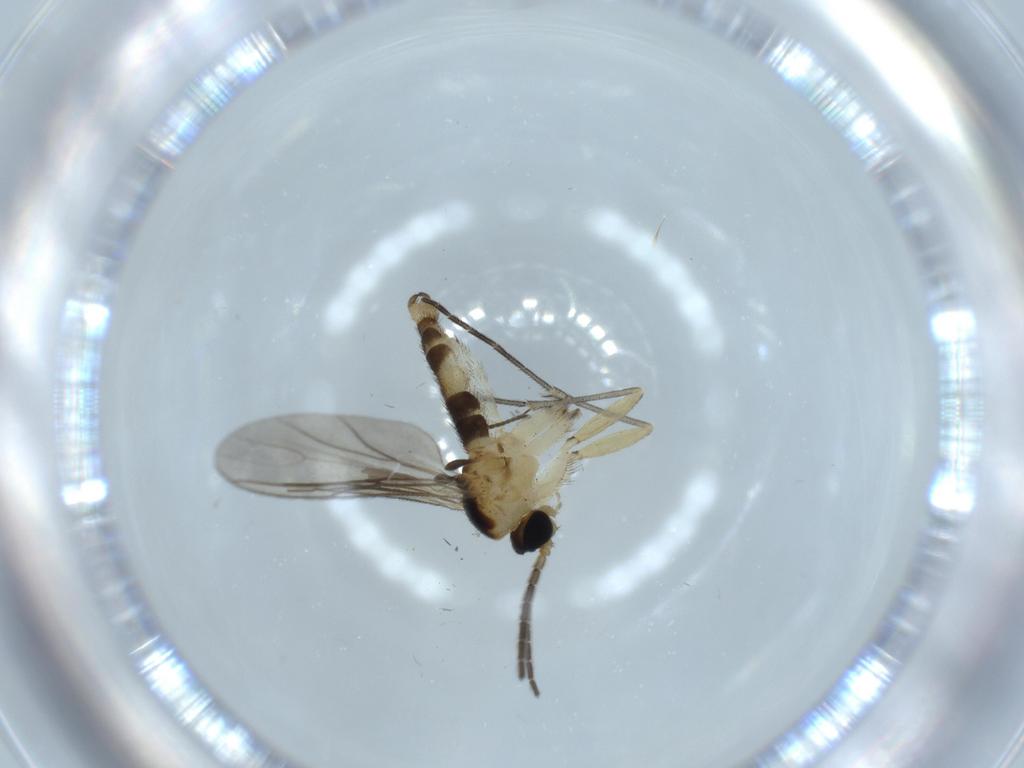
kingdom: Animalia
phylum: Arthropoda
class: Insecta
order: Diptera
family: Sciaridae
